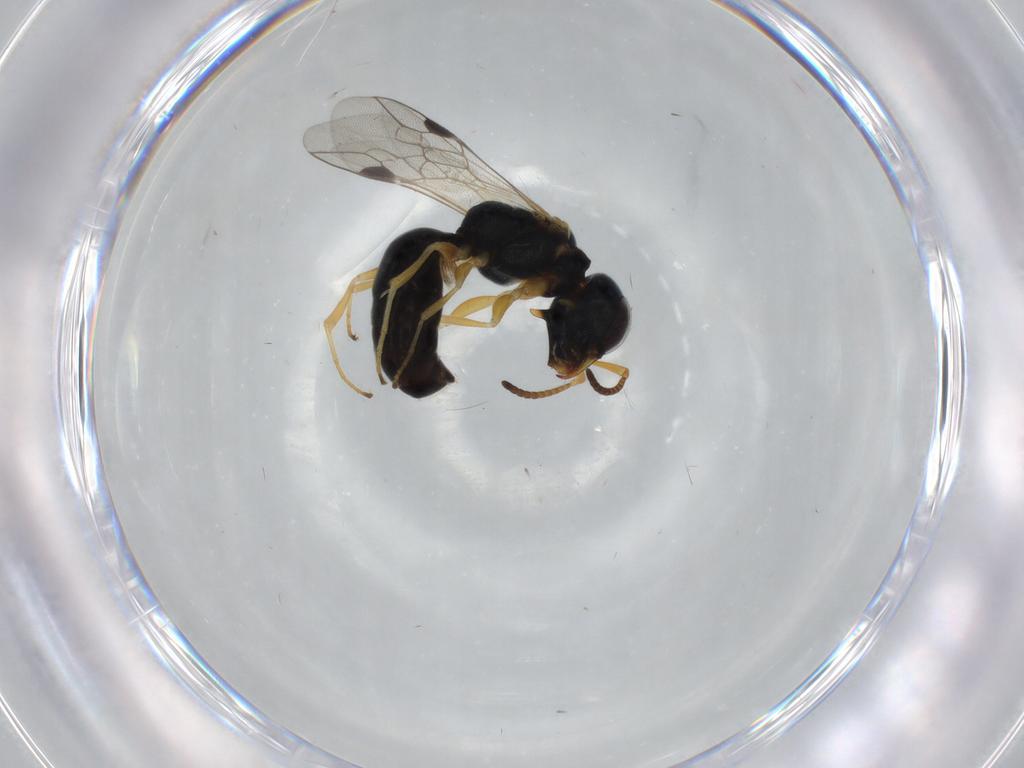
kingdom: Animalia
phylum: Arthropoda
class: Insecta
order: Hymenoptera
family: Pemphredonidae
